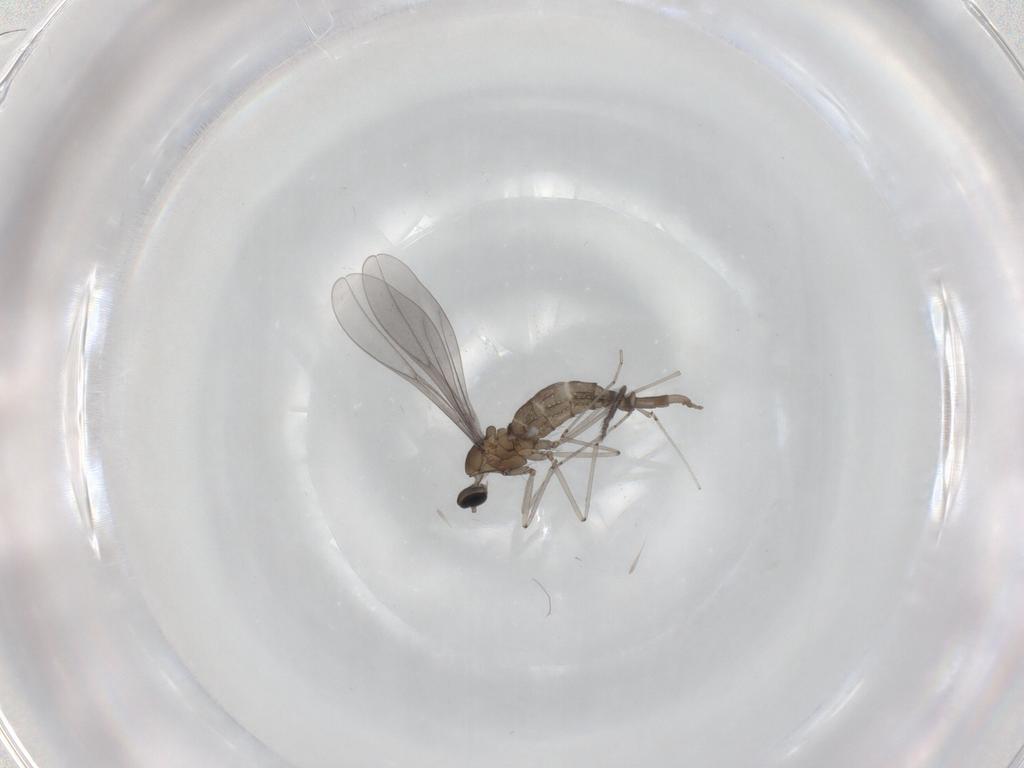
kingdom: Animalia
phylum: Arthropoda
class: Insecta
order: Diptera
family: Cecidomyiidae
